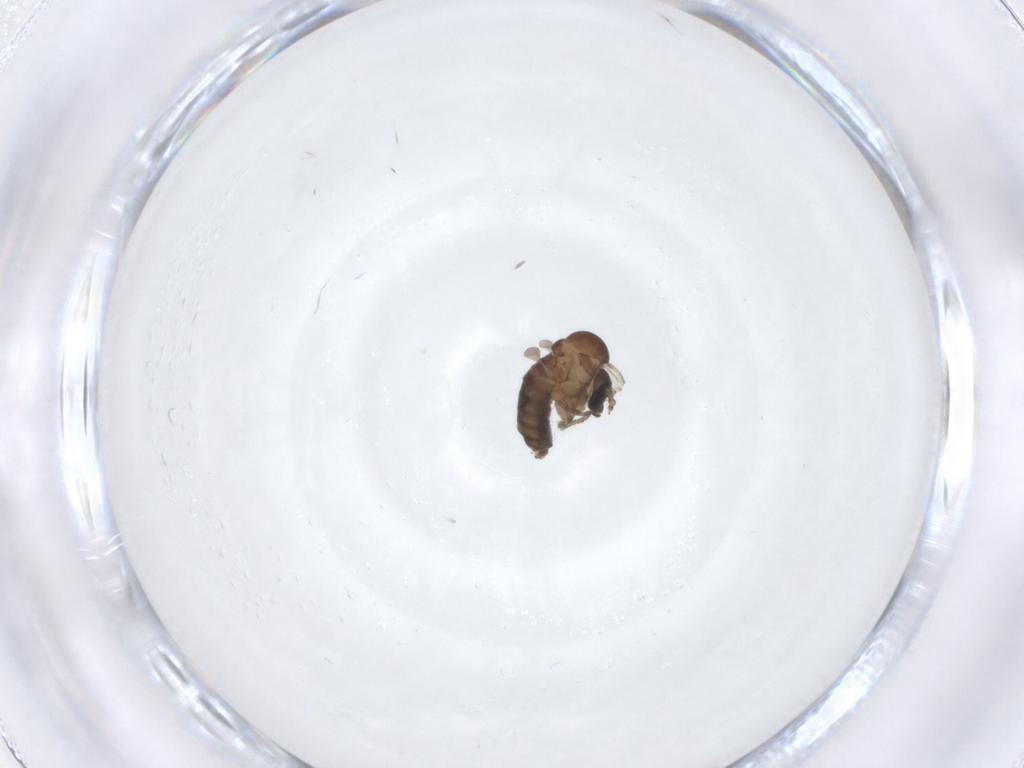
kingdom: Animalia
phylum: Arthropoda
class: Insecta
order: Diptera
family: Psychodidae
